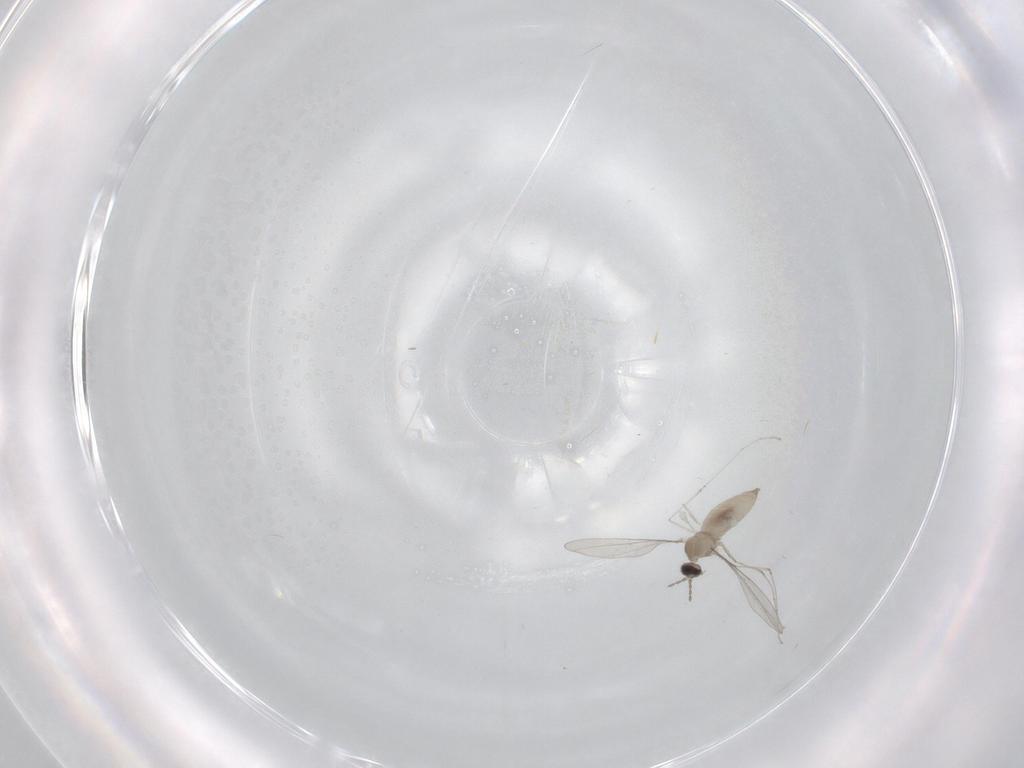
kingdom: Animalia
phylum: Arthropoda
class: Insecta
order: Diptera
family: Cecidomyiidae
